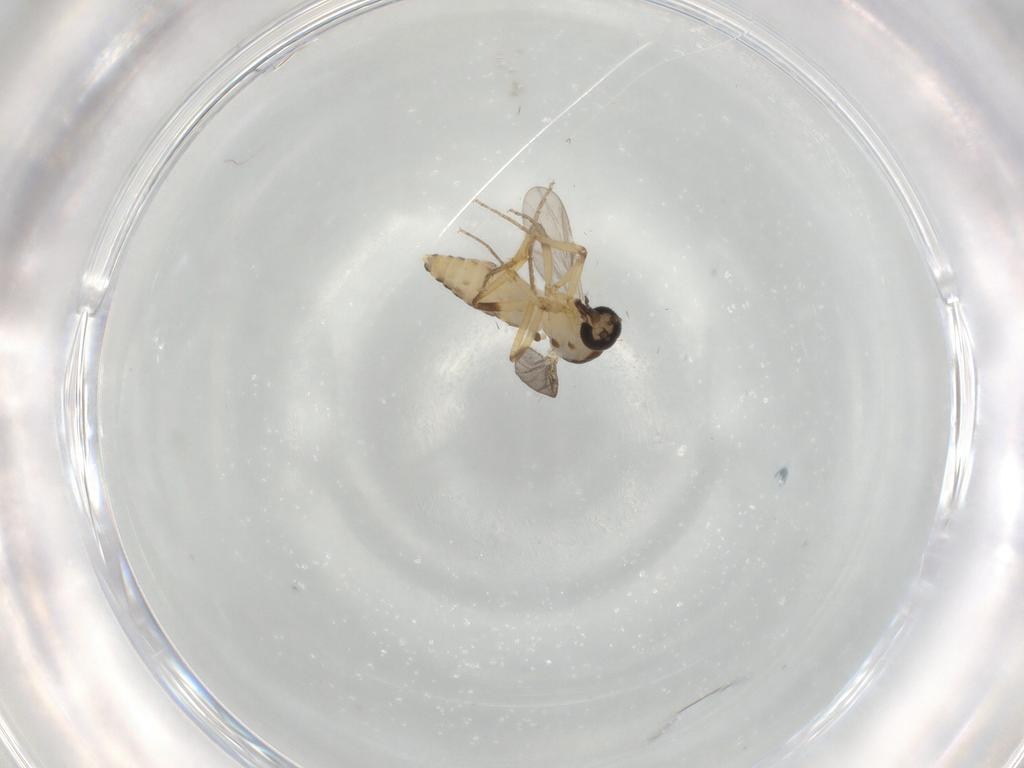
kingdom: Animalia
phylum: Arthropoda
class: Insecta
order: Diptera
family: Ceratopogonidae
